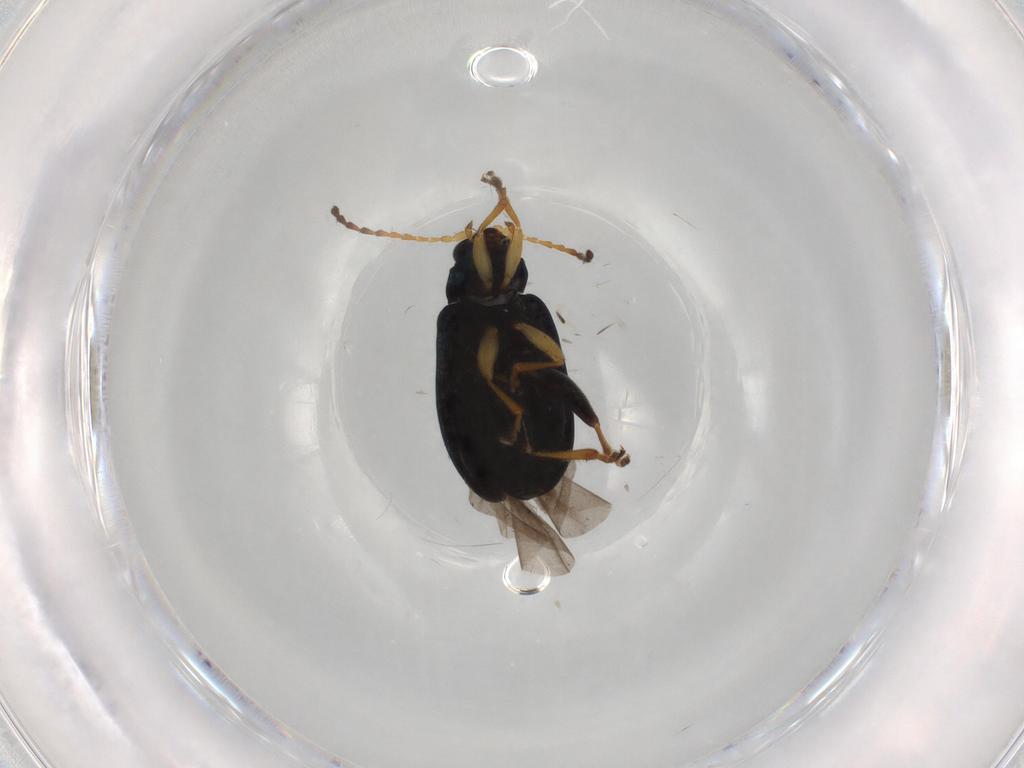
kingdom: Animalia
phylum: Arthropoda
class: Insecta
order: Coleoptera
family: Chrysomelidae
